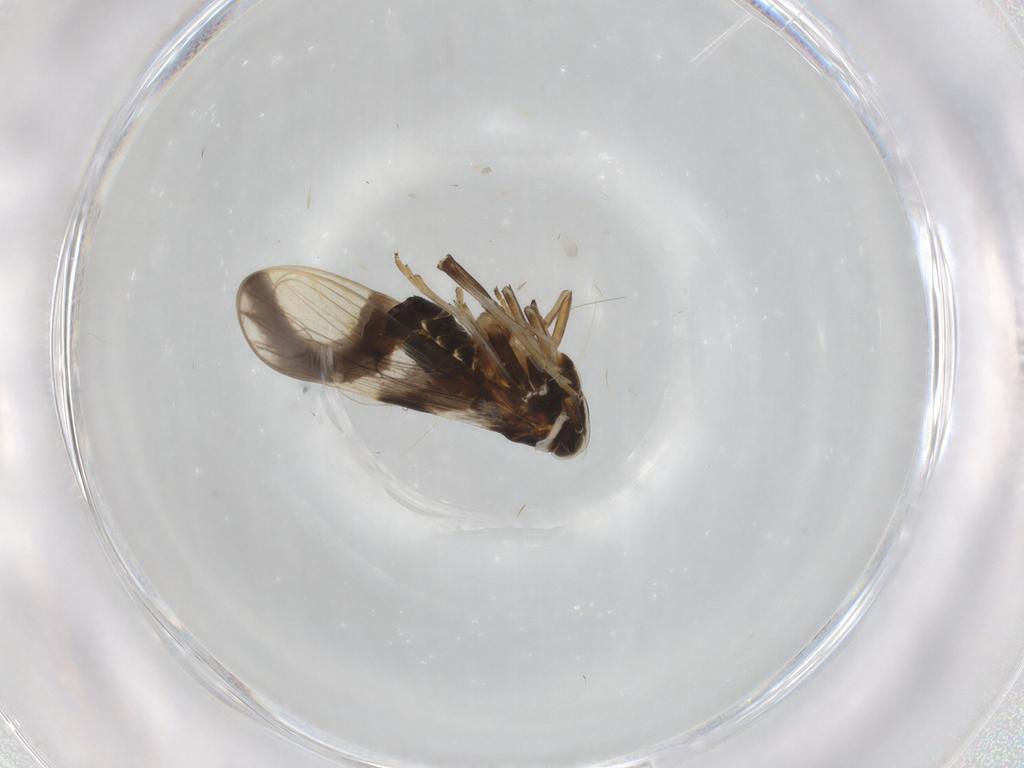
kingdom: Animalia
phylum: Arthropoda
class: Insecta
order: Hemiptera
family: Delphacidae
